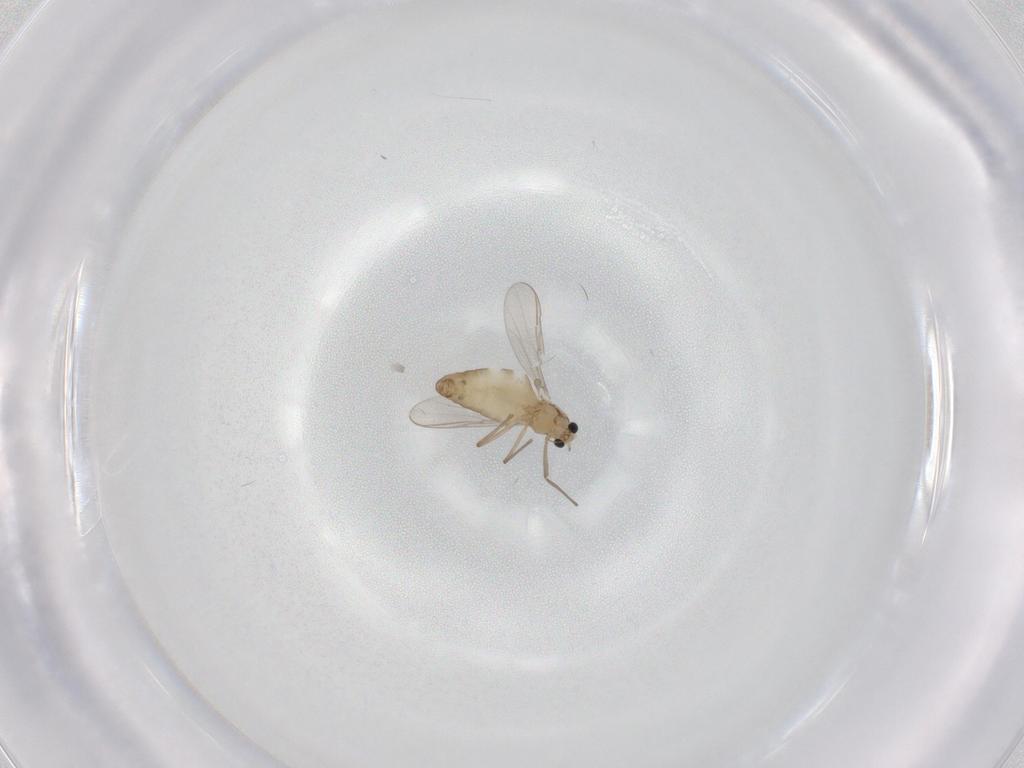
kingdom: Animalia
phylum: Arthropoda
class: Insecta
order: Diptera
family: Chironomidae
